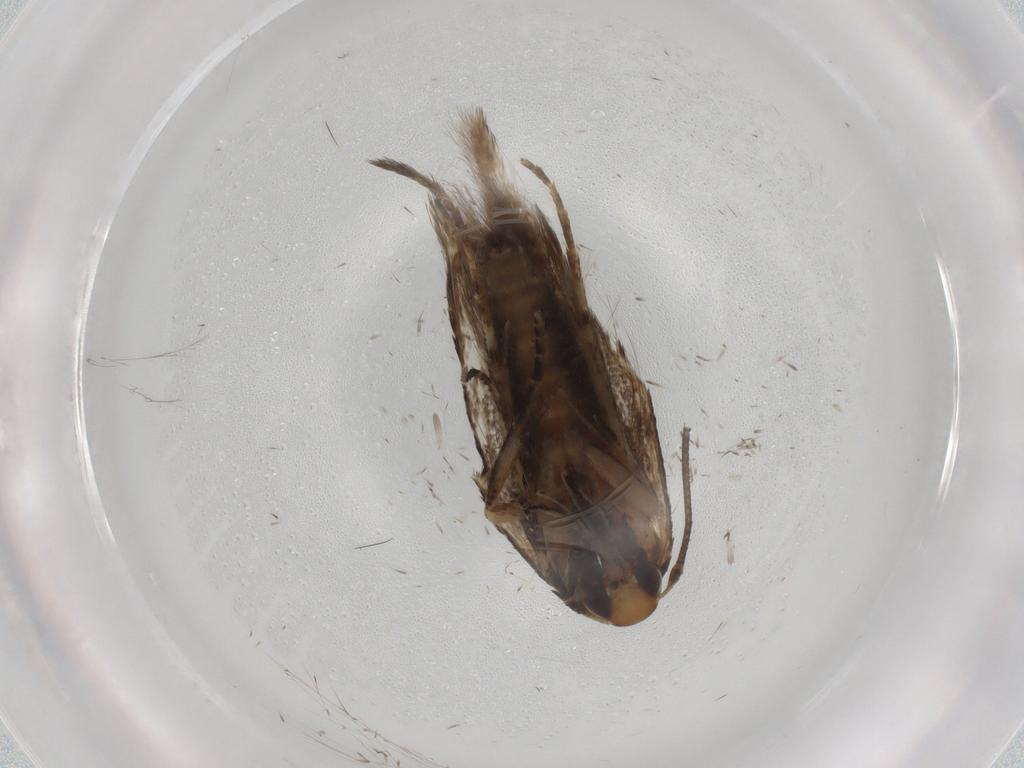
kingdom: Animalia
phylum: Arthropoda
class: Insecta
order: Lepidoptera
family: Cosmopterigidae
